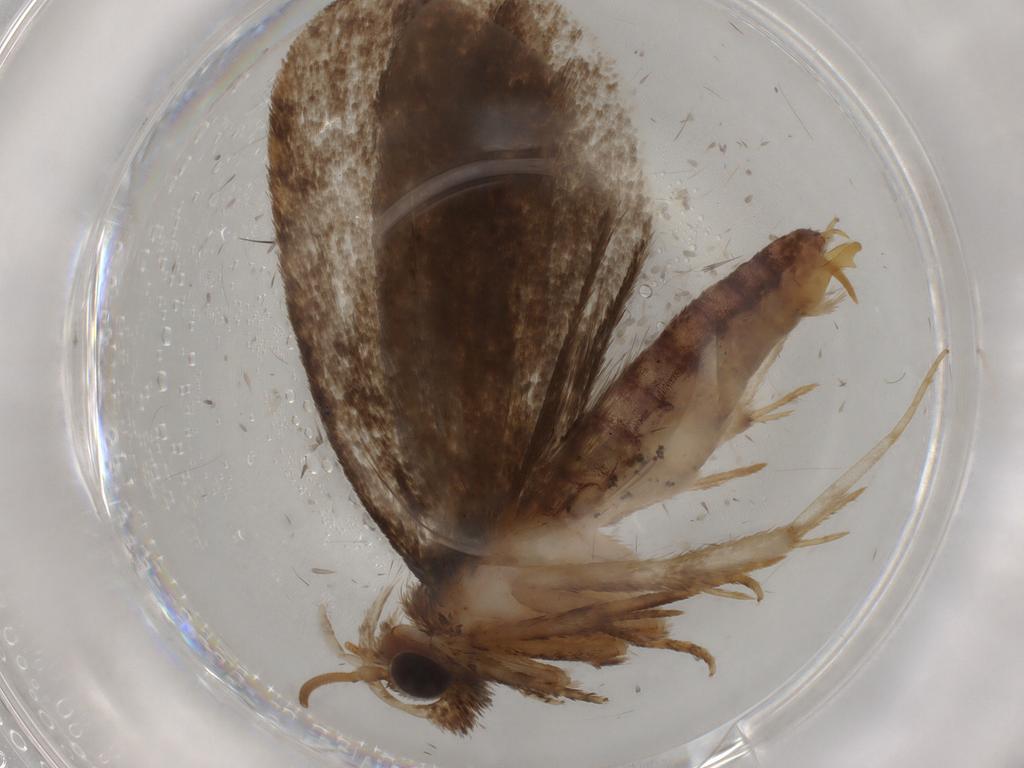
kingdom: Animalia
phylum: Arthropoda
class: Insecta
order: Lepidoptera
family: Tineidae
